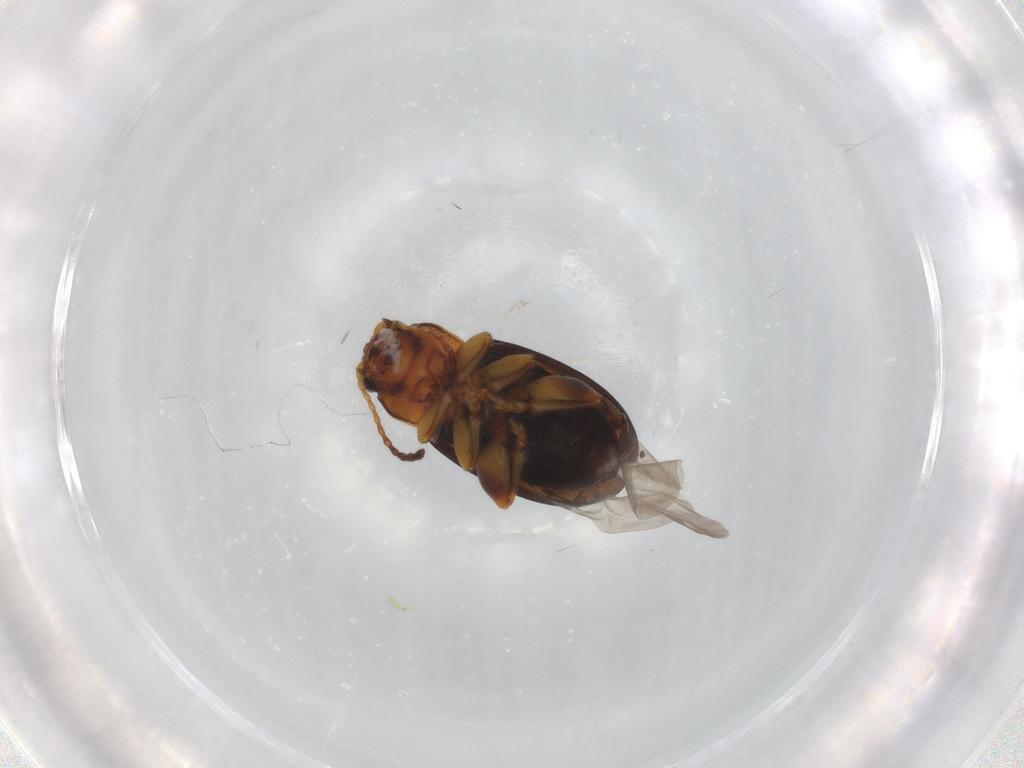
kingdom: Animalia
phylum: Arthropoda
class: Insecta
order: Coleoptera
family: Chrysomelidae
